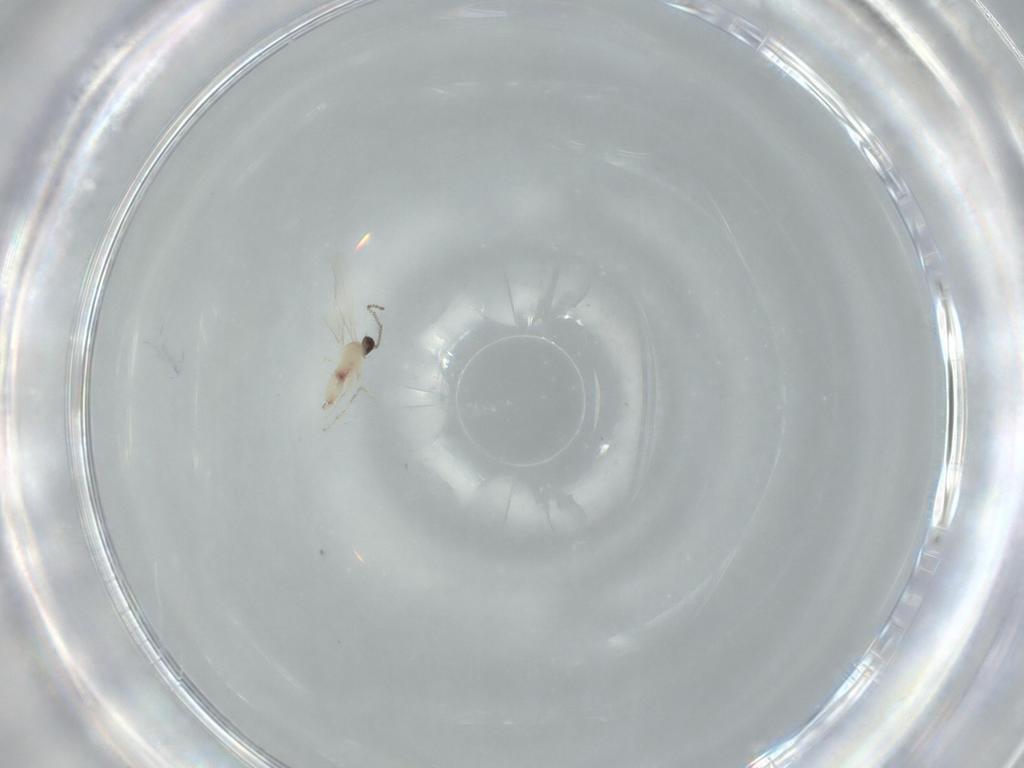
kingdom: Animalia
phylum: Arthropoda
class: Insecta
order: Diptera
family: Cecidomyiidae
